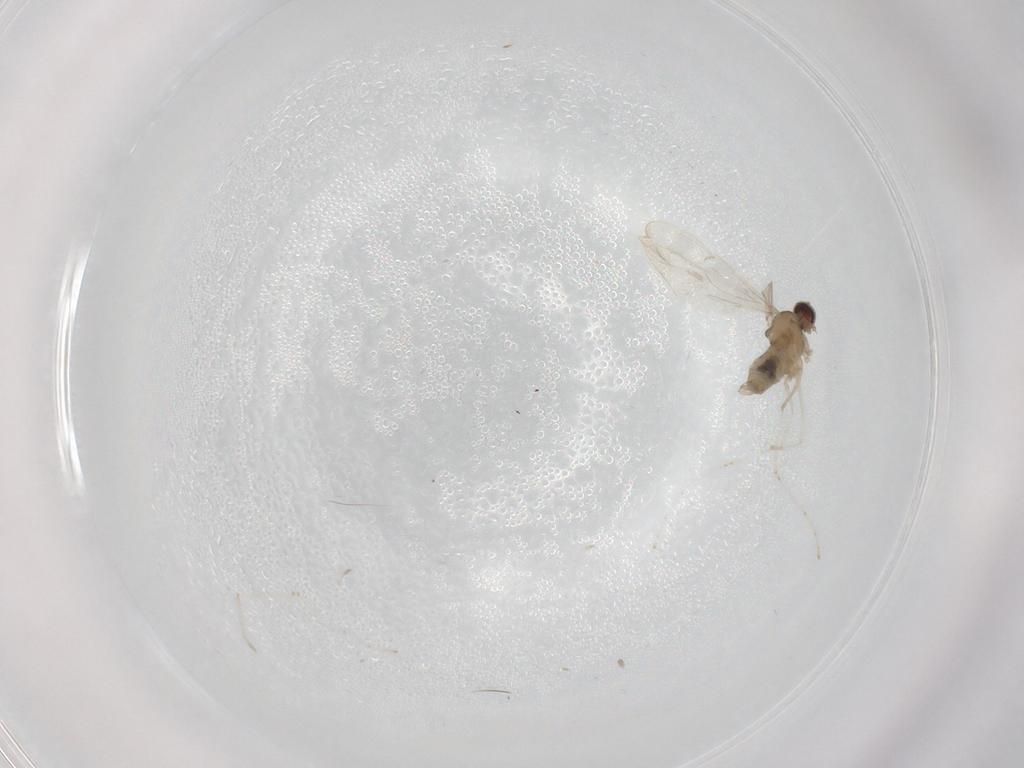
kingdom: Animalia
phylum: Arthropoda
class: Insecta
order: Diptera
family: Cecidomyiidae
